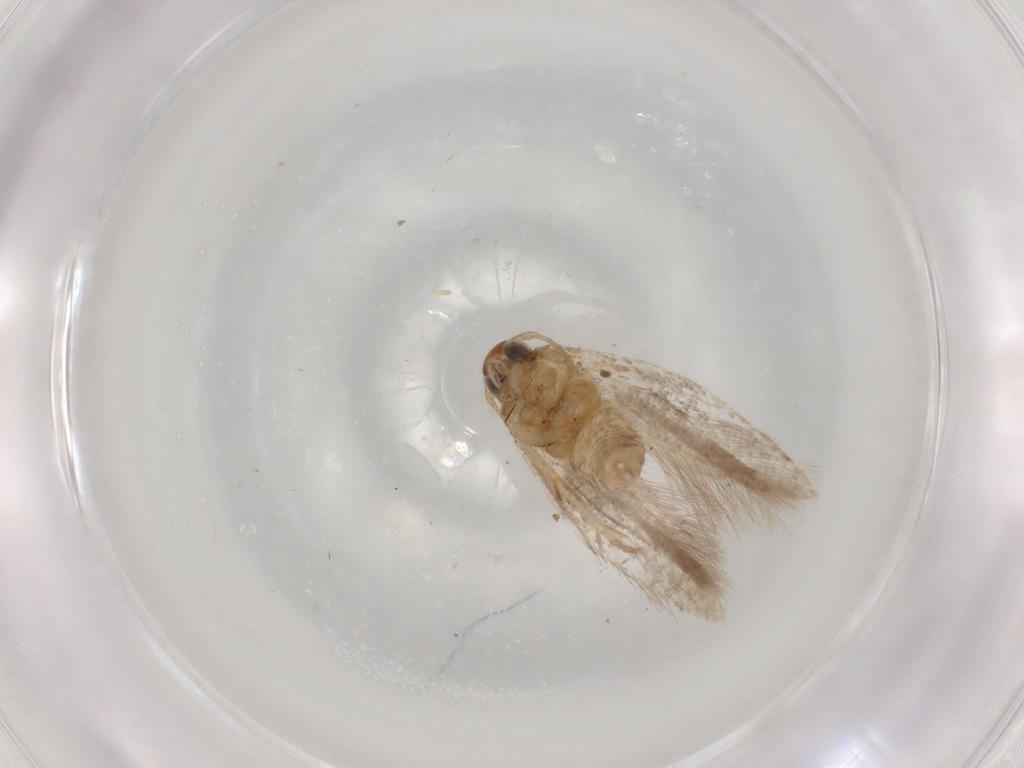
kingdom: Animalia
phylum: Arthropoda
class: Insecta
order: Lepidoptera
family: Gelechiidae
